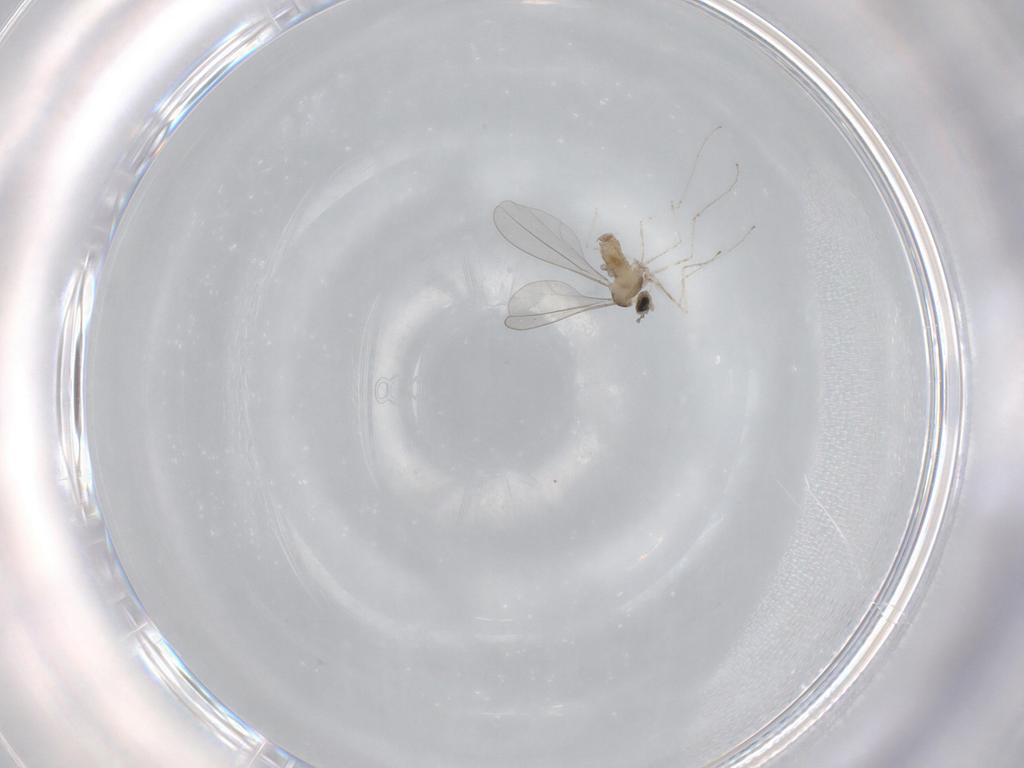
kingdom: Animalia
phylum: Arthropoda
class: Insecta
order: Diptera
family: Cecidomyiidae
